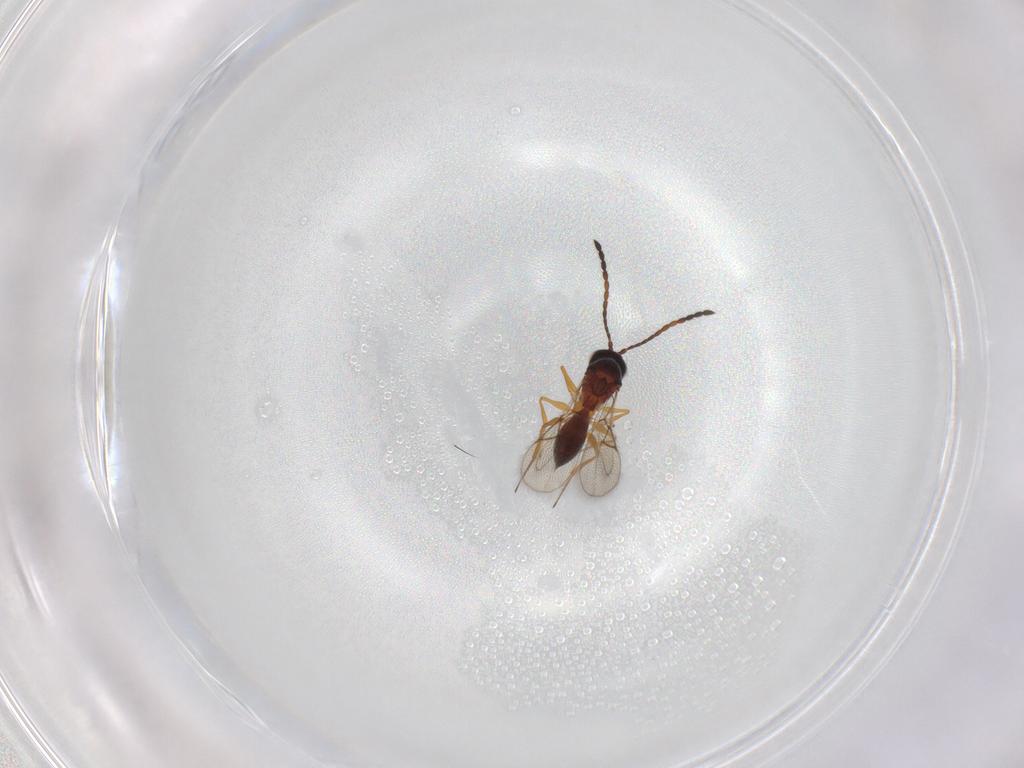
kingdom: Animalia
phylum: Arthropoda
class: Insecta
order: Hymenoptera
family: Figitidae
